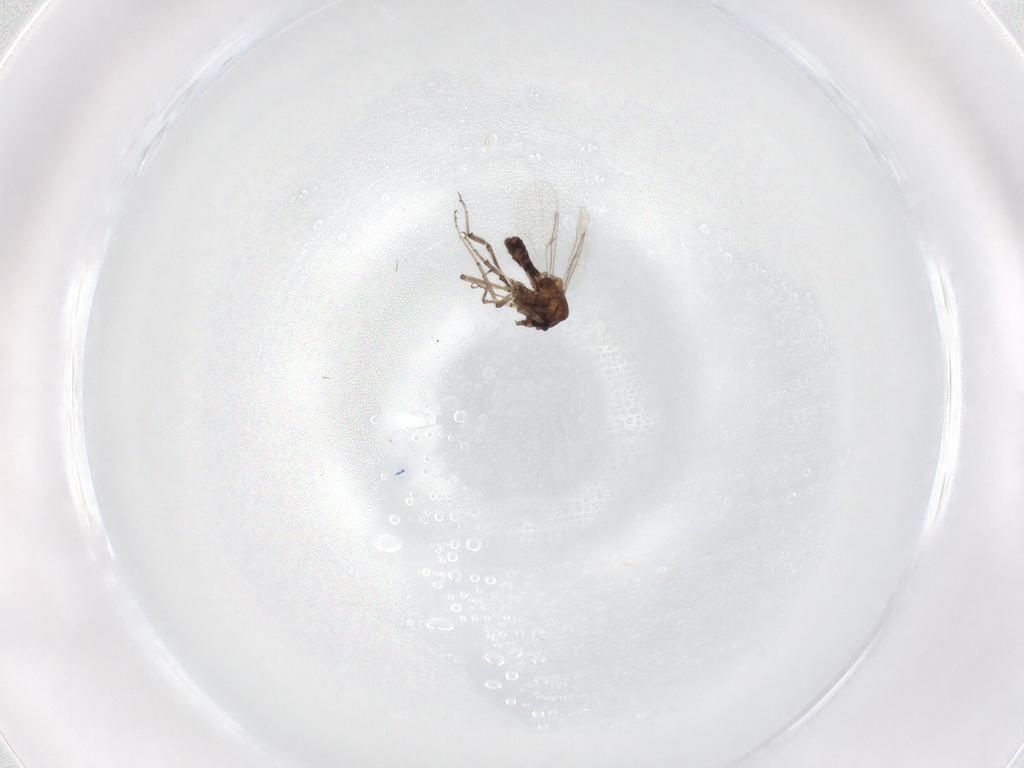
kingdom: Animalia
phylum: Arthropoda
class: Insecta
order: Diptera
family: Cecidomyiidae
